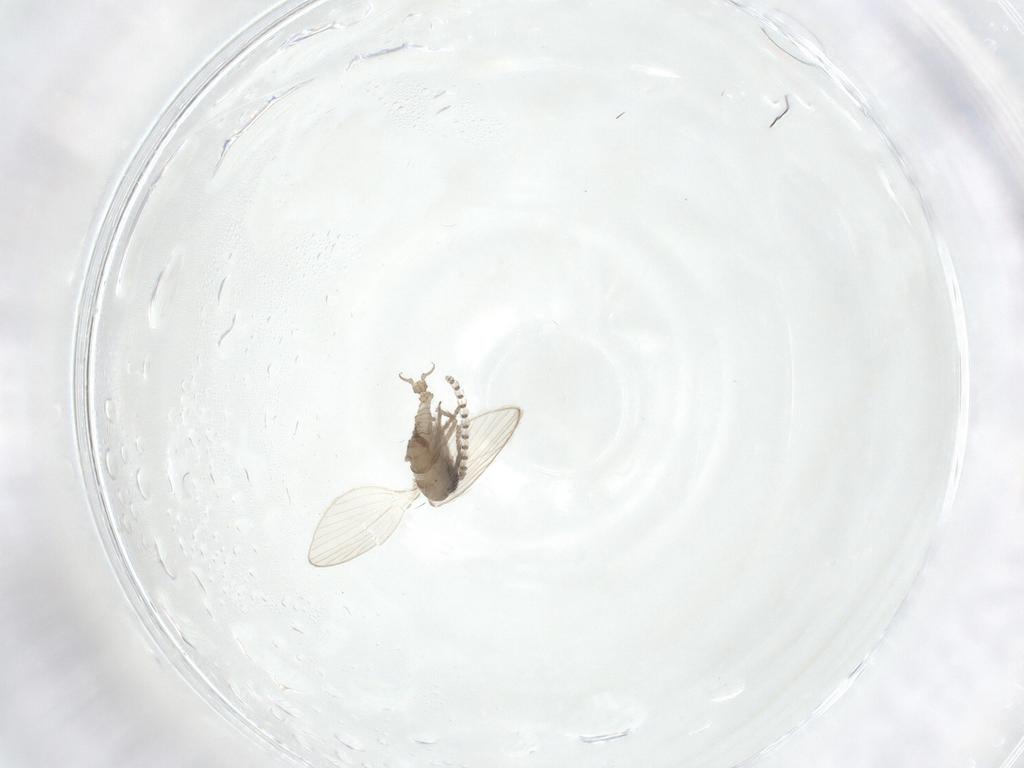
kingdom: Animalia
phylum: Arthropoda
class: Insecta
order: Diptera
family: Psychodidae
